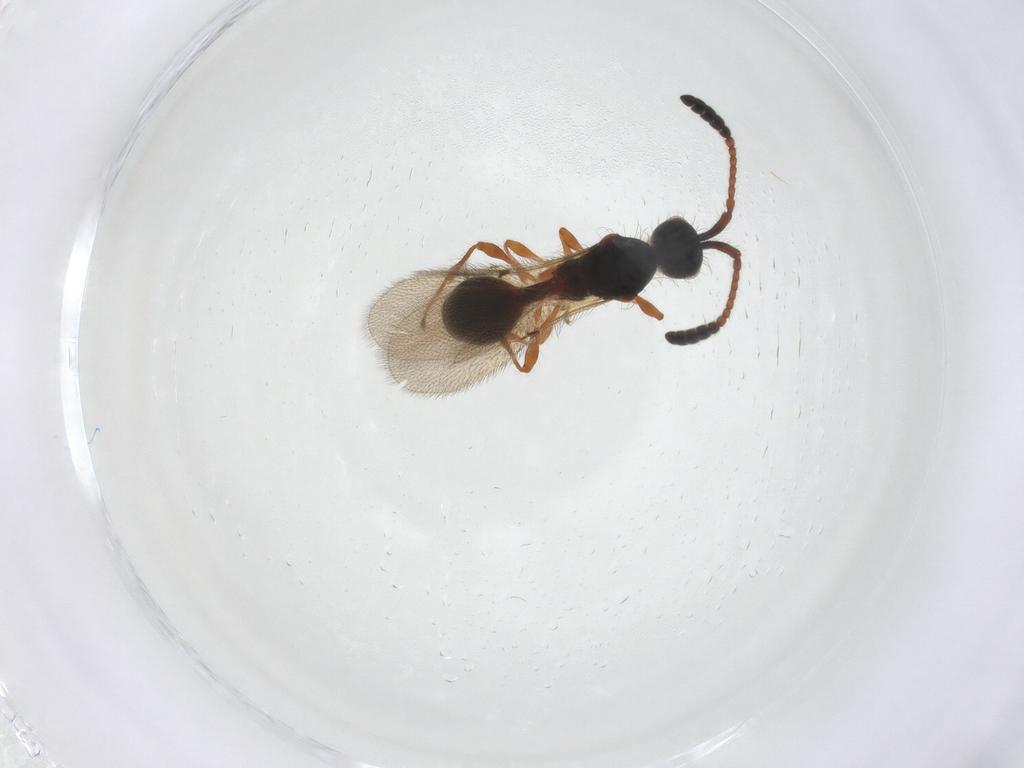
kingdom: Animalia
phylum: Arthropoda
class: Insecta
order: Hymenoptera
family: Diapriidae
